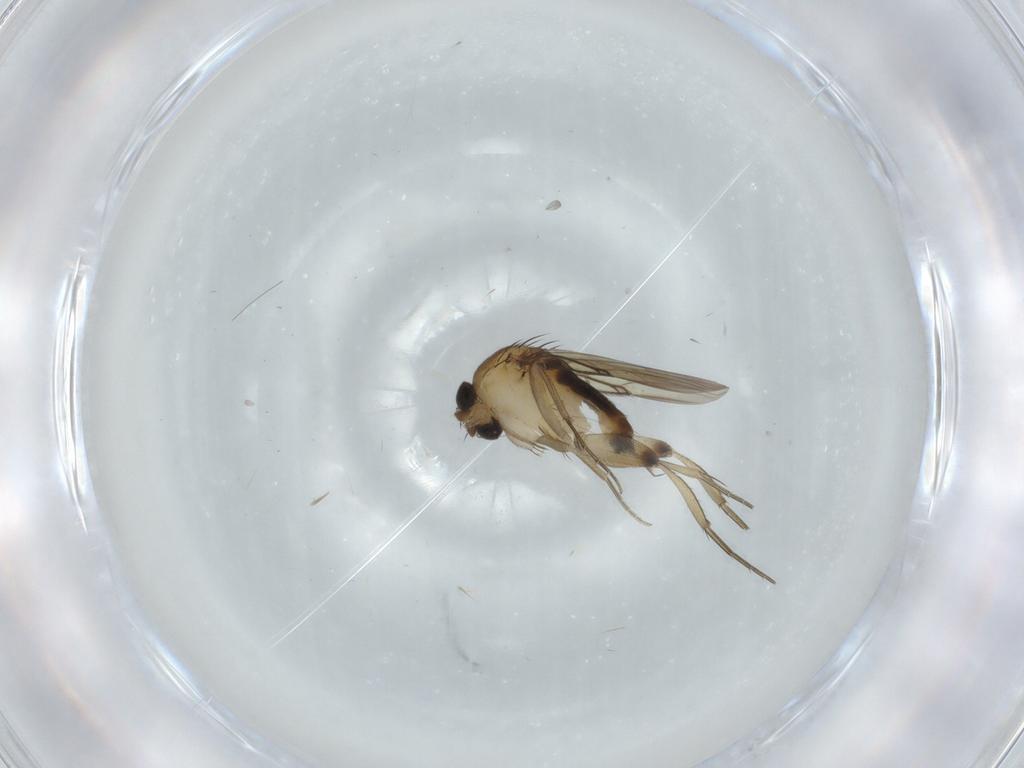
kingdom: Animalia
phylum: Arthropoda
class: Insecta
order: Diptera
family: Phoridae
